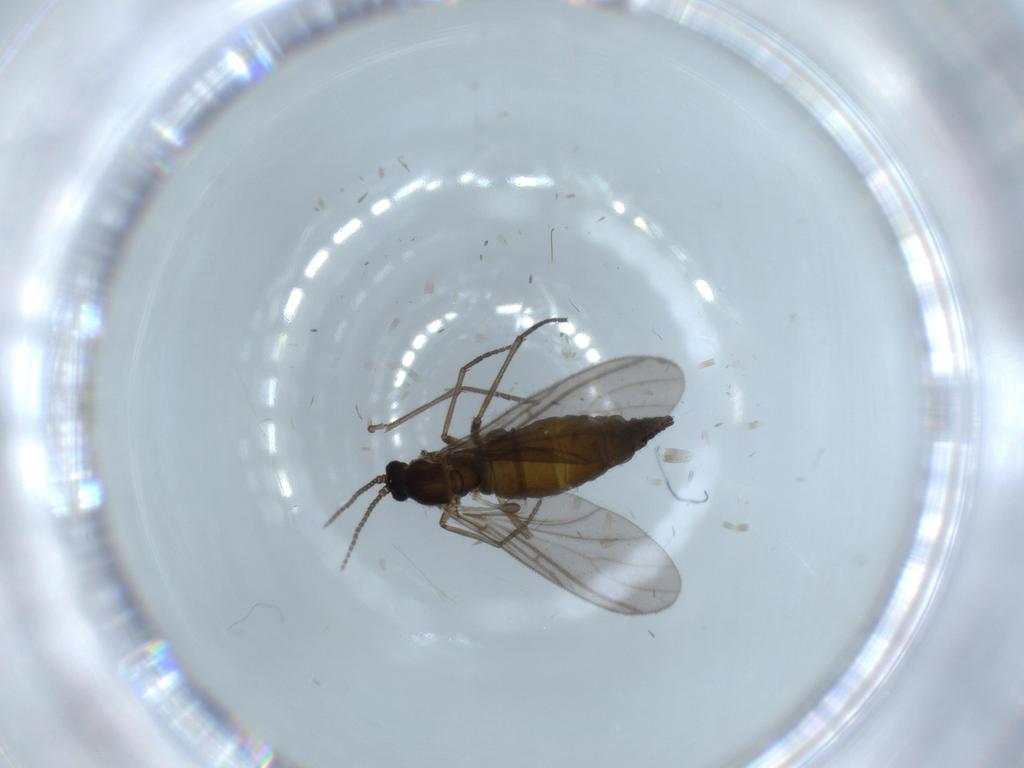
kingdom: Animalia
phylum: Arthropoda
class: Insecta
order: Diptera
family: Sciaridae
